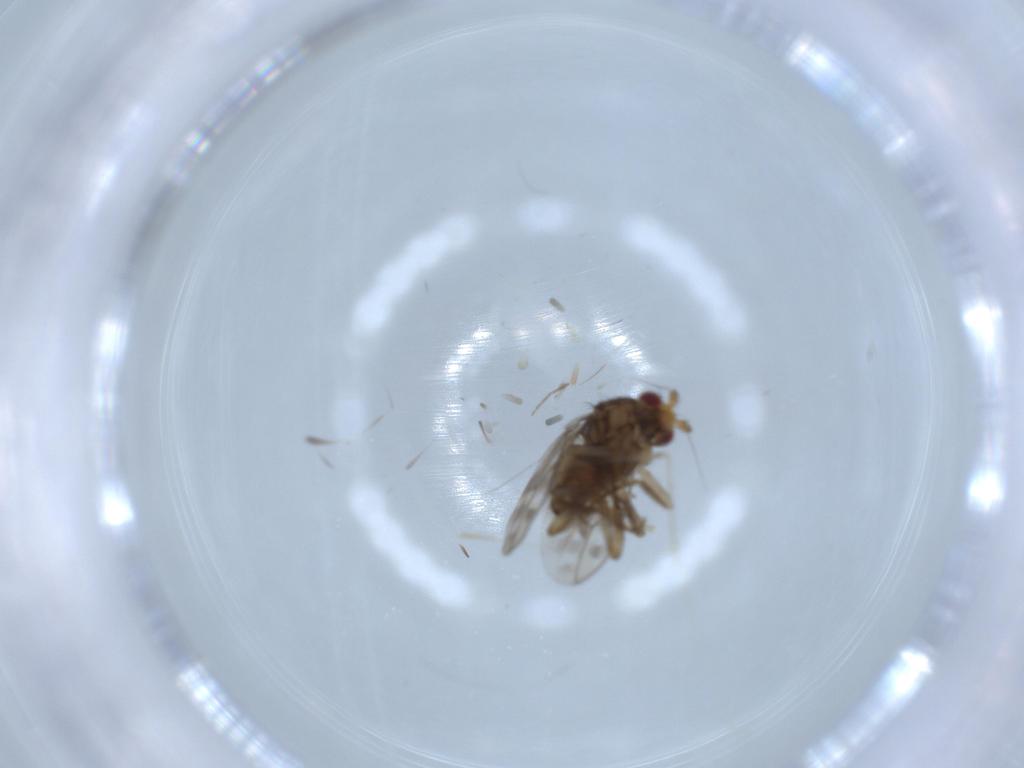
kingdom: Animalia
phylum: Arthropoda
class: Insecta
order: Diptera
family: Sphaeroceridae
